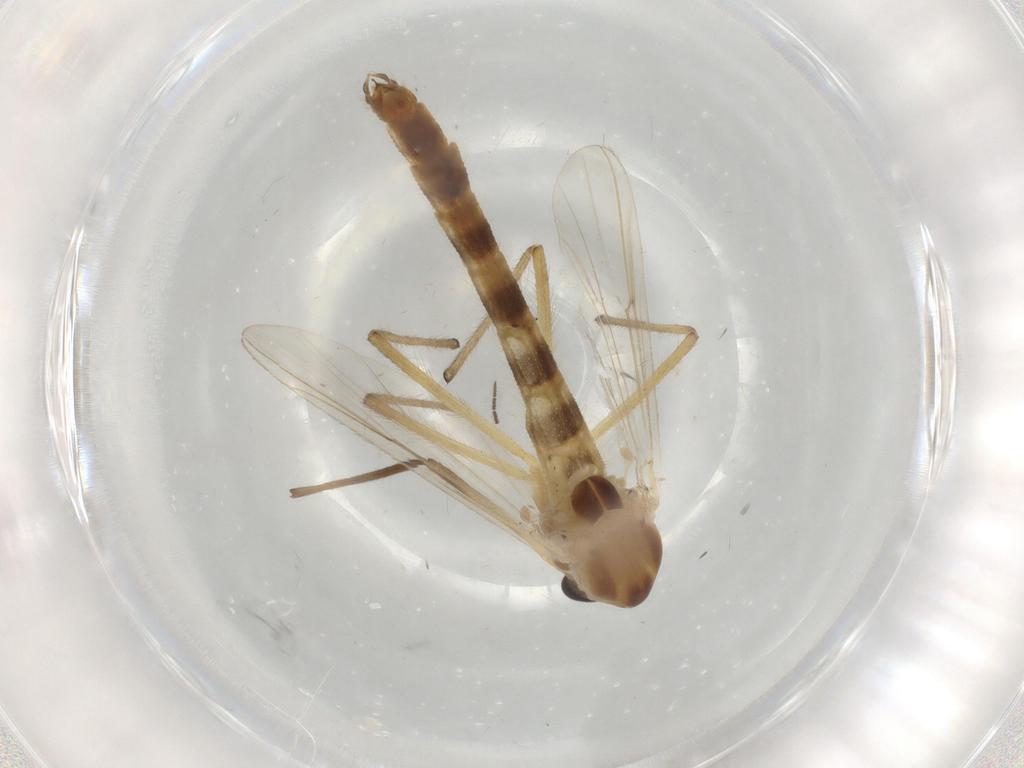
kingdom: Animalia
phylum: Arthropoda
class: Insecta
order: Diptera
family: Chironomidae
